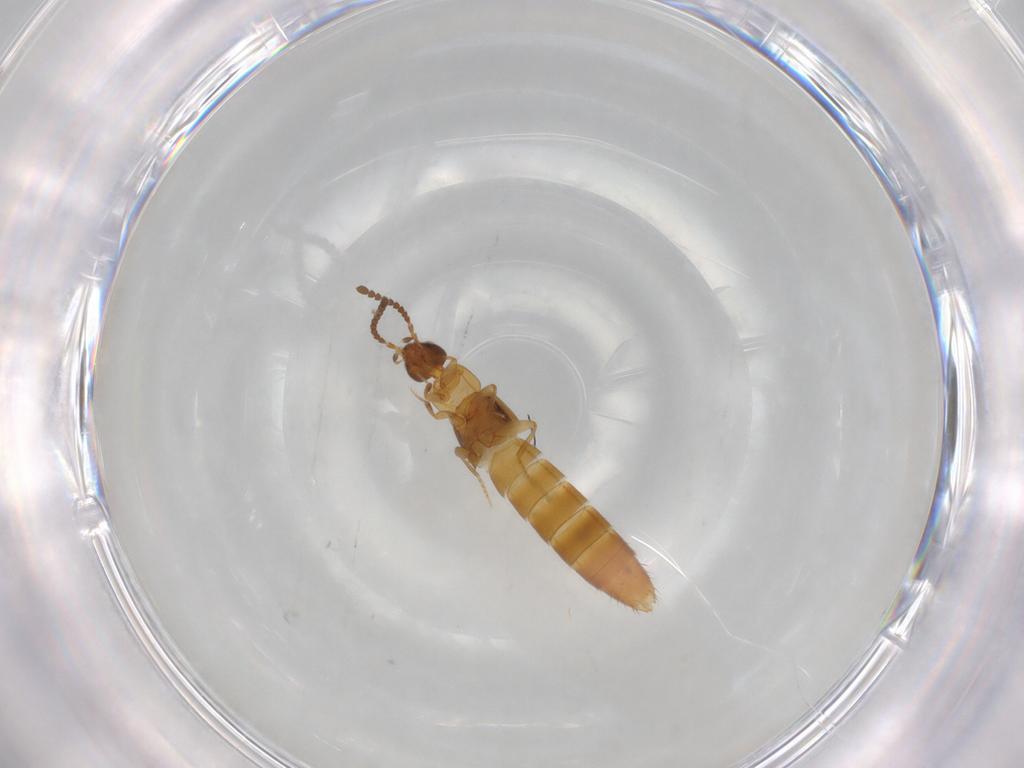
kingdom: Animalia
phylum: Arthropoda
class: Insecta
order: Coleoptera
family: Staphylinidae
